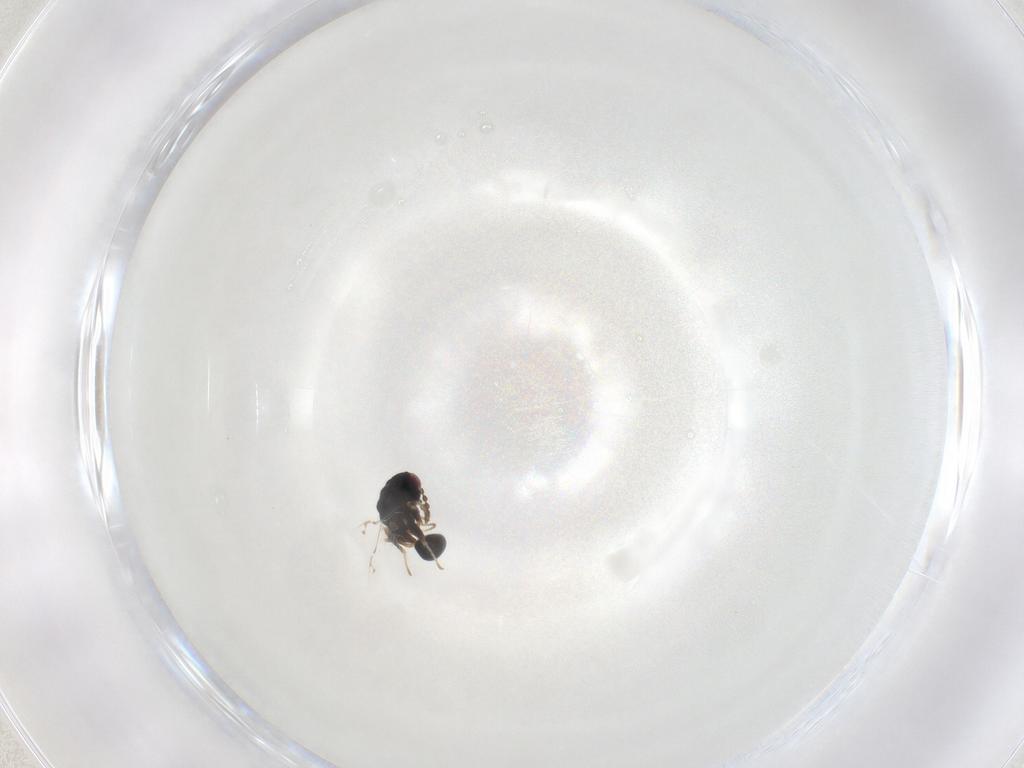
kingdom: Animalia
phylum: Arthropoda
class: Insecta
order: Hymenoptera
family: Eurytomidae
